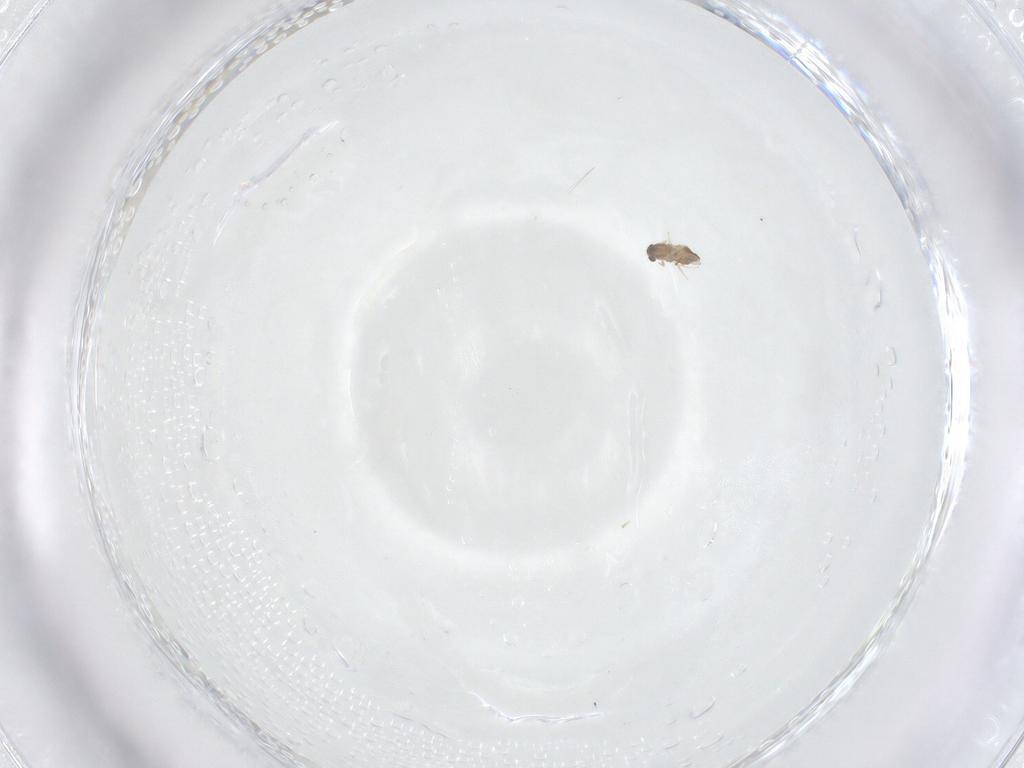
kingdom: Animalia
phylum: Arthropoda
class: Insecta
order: Diptera
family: Chironomidae
